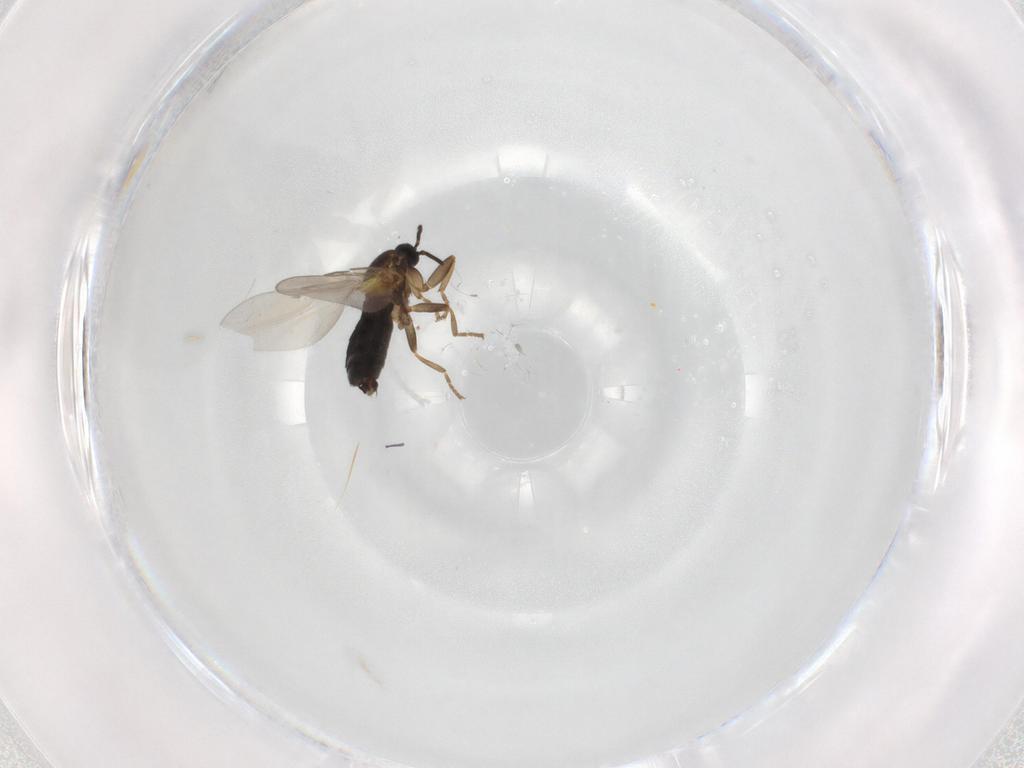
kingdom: Animalia
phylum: Arthropoda
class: Insecta
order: Diptera
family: Scatopsidae
